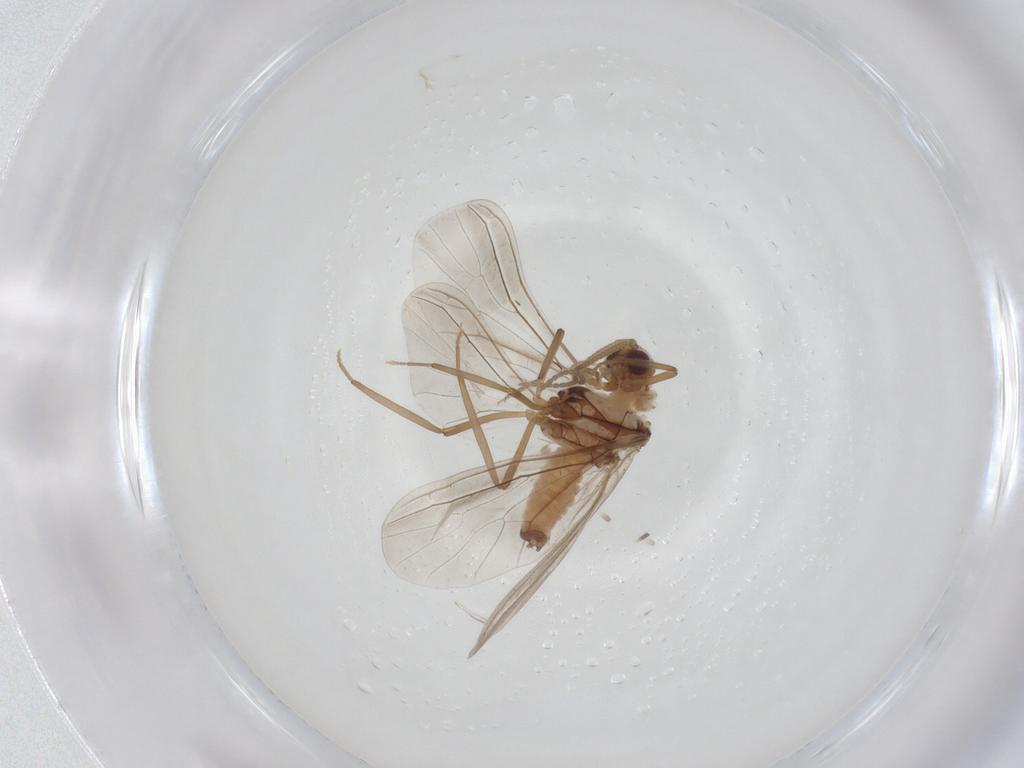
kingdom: Animalia
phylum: Arthropoda
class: Insecta
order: Neuroptera
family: Coniopterygidae
